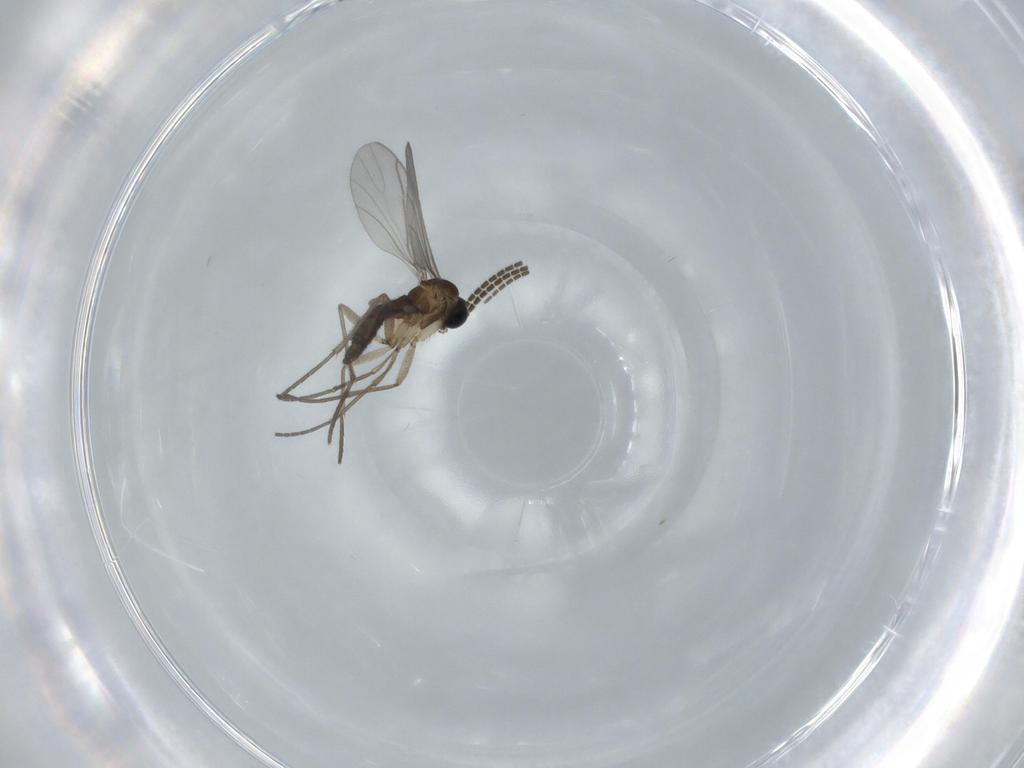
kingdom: Animalia
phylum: Arthropoda
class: Insecta
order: Diptera
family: Sciaridae
